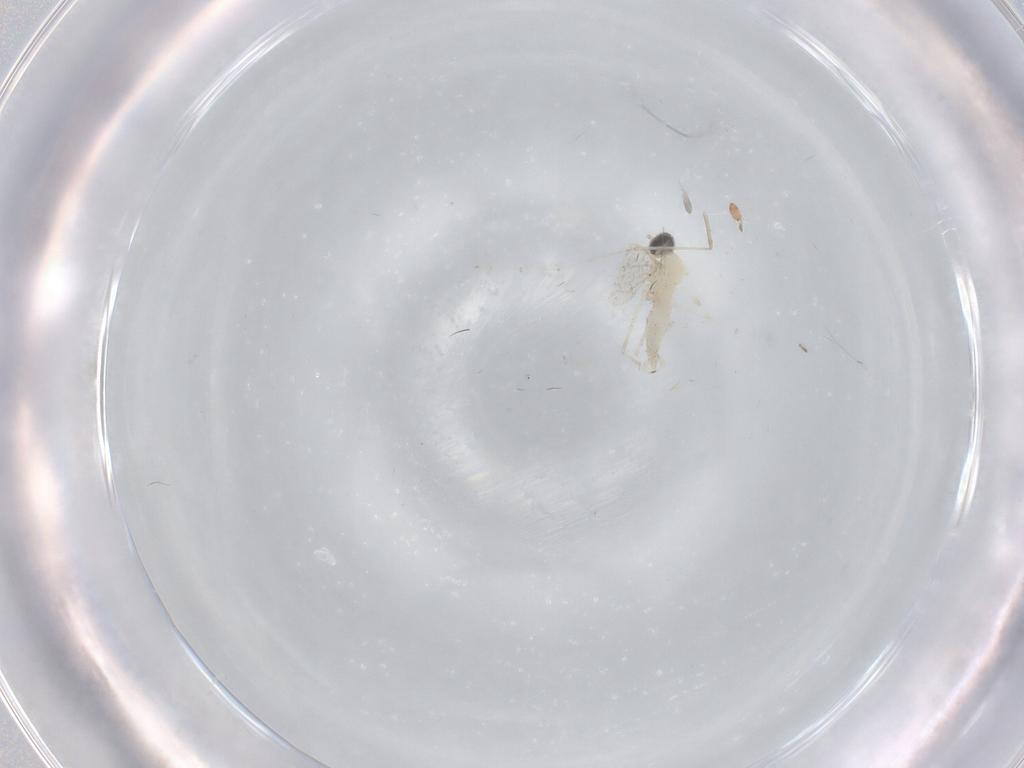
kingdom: Animalia
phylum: Arthropoda
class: Insecta
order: Diptera
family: Cecidomyiidae
